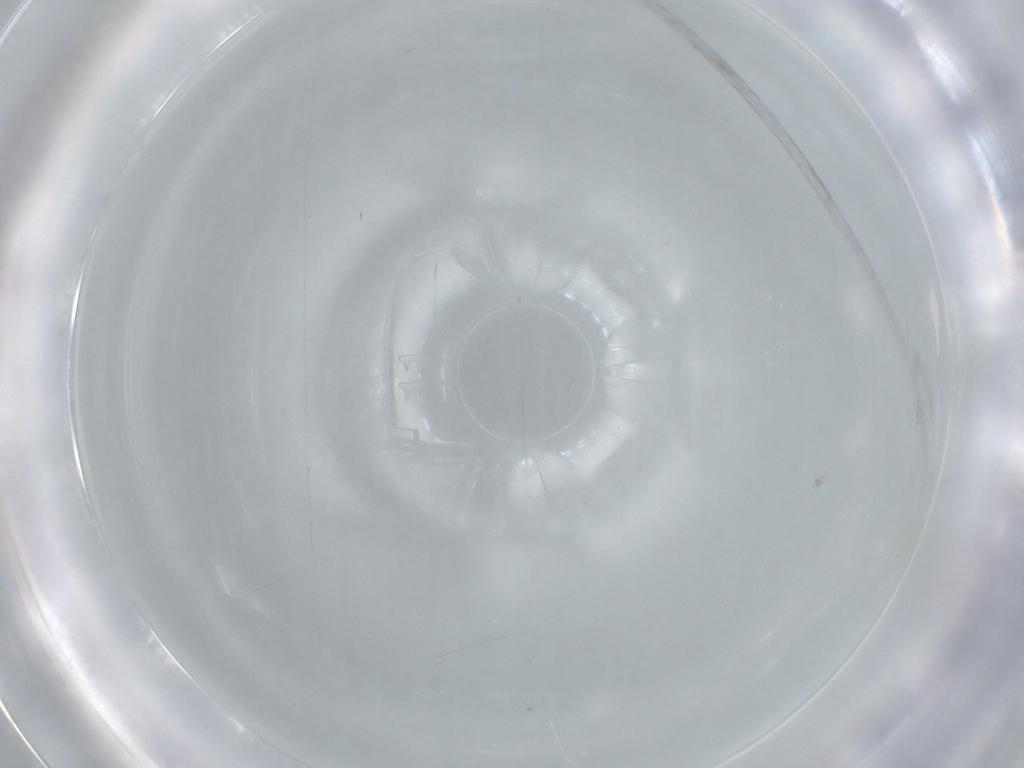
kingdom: Animalia
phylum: Arthropoda
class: Insecta
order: Diptera
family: Phoridae
